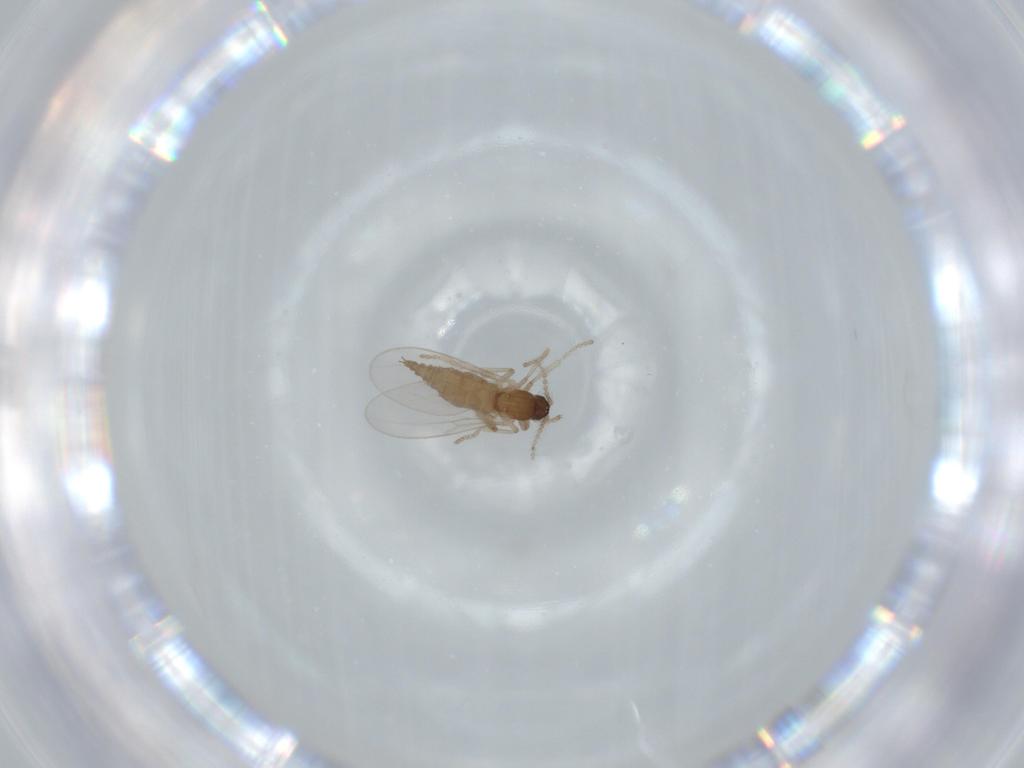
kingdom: Animalia
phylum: Arthropoda
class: Insecta
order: Diptera
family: Cecidomyiidae
